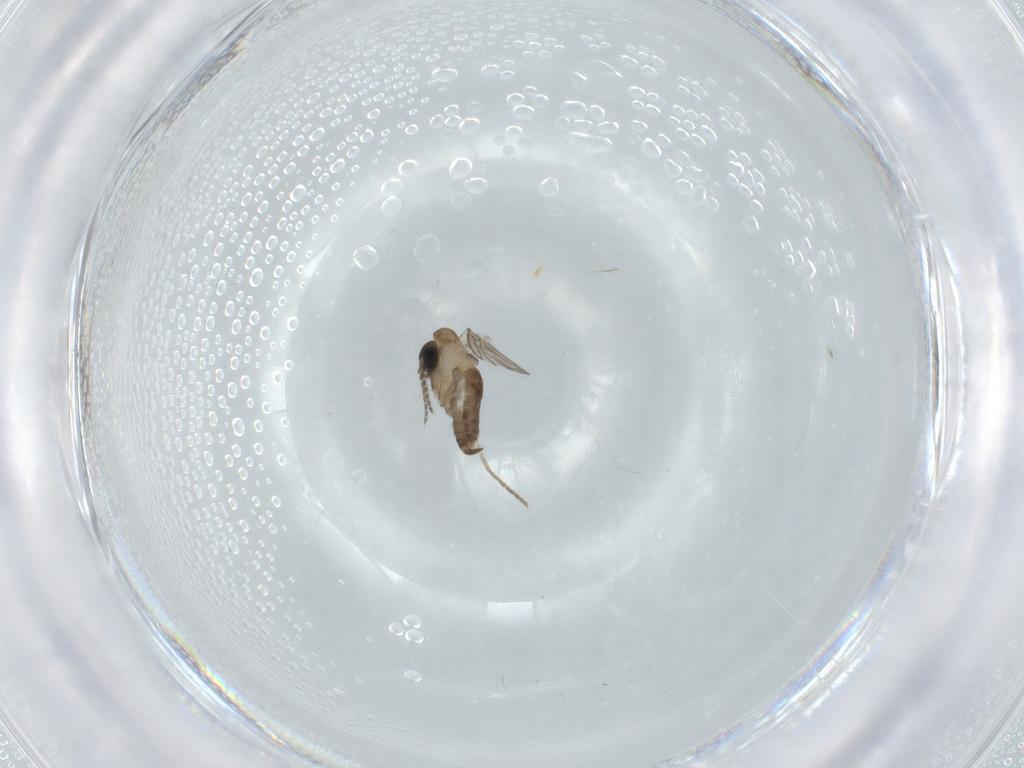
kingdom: Animalia
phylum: Arthropoda
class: Insecta
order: Diptera
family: Psychodidae
